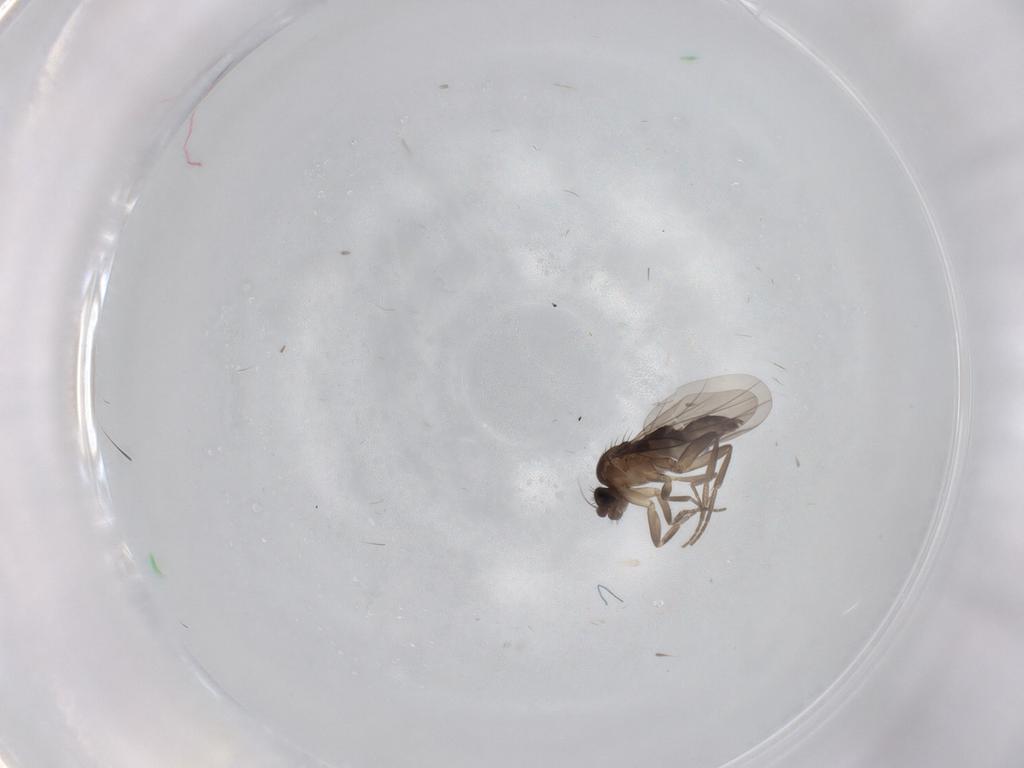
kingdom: Animalia
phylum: Arthropoda
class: Insecta
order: Diptera
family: Phoridae
